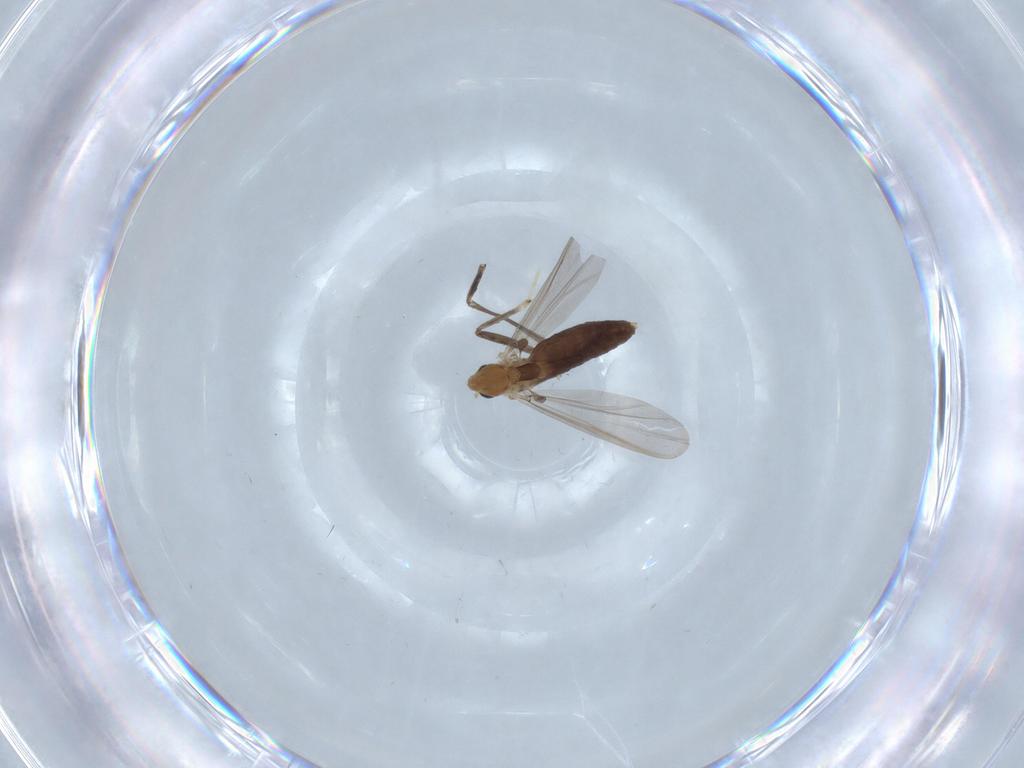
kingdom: Animalia
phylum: Arthropoda
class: Insecta
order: Diptera
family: Chironomidae
